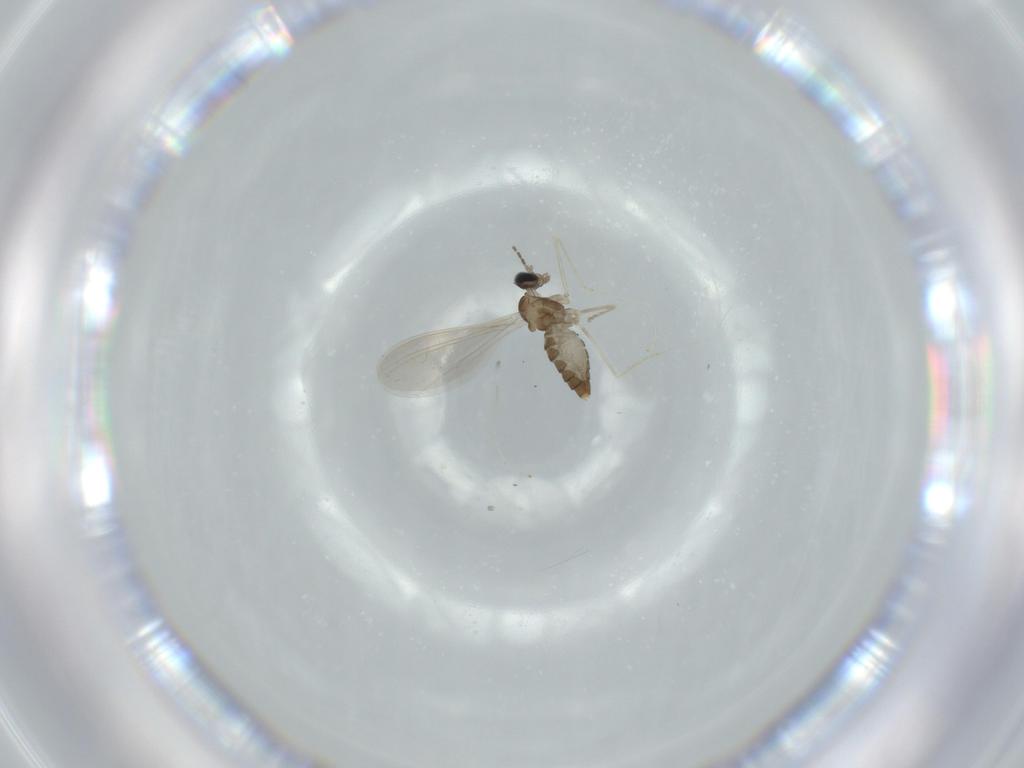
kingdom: Animalia
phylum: Arthropoda
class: Insecta
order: Diptera
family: Cecidomyiidae
